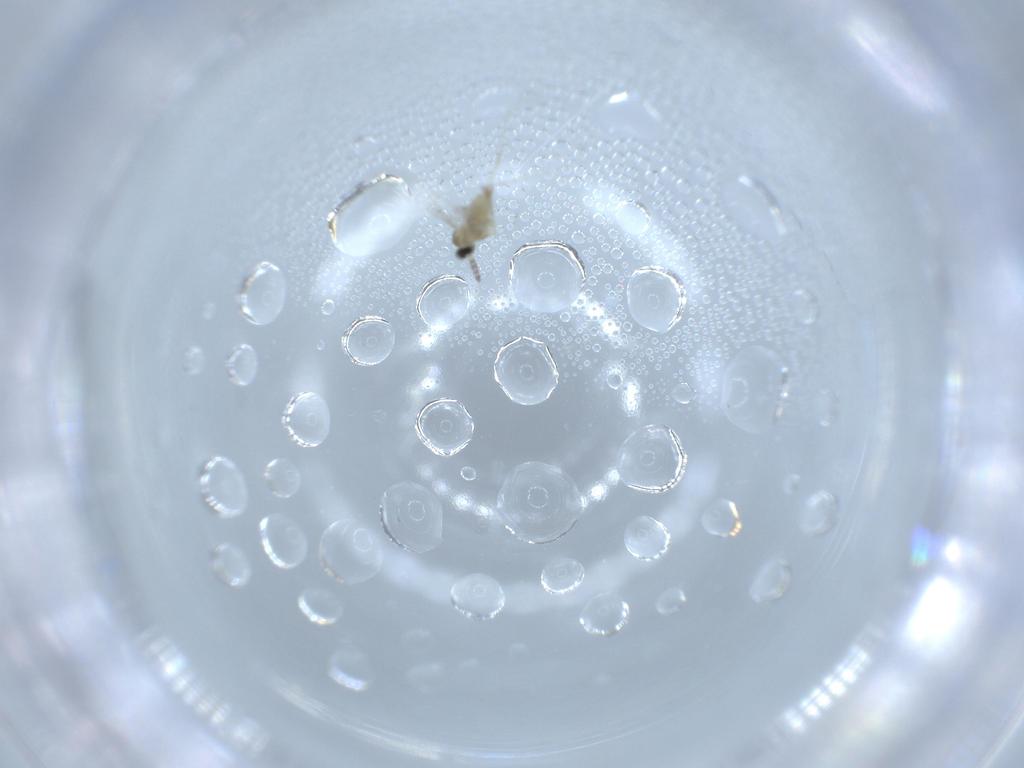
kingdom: Animalia
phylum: Arthropoda
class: Insecta
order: Diptera
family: Cecidomyiidae
